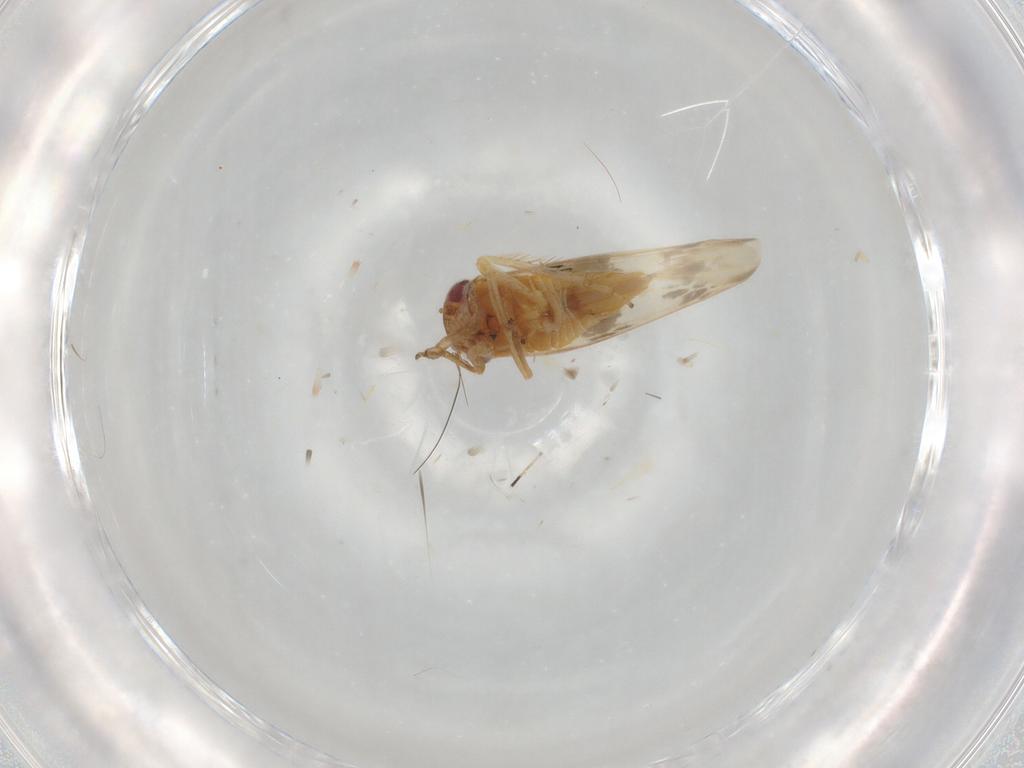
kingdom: Animalia
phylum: Arthropoda
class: Insecta
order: Hemiptera
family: Cicadellidae
